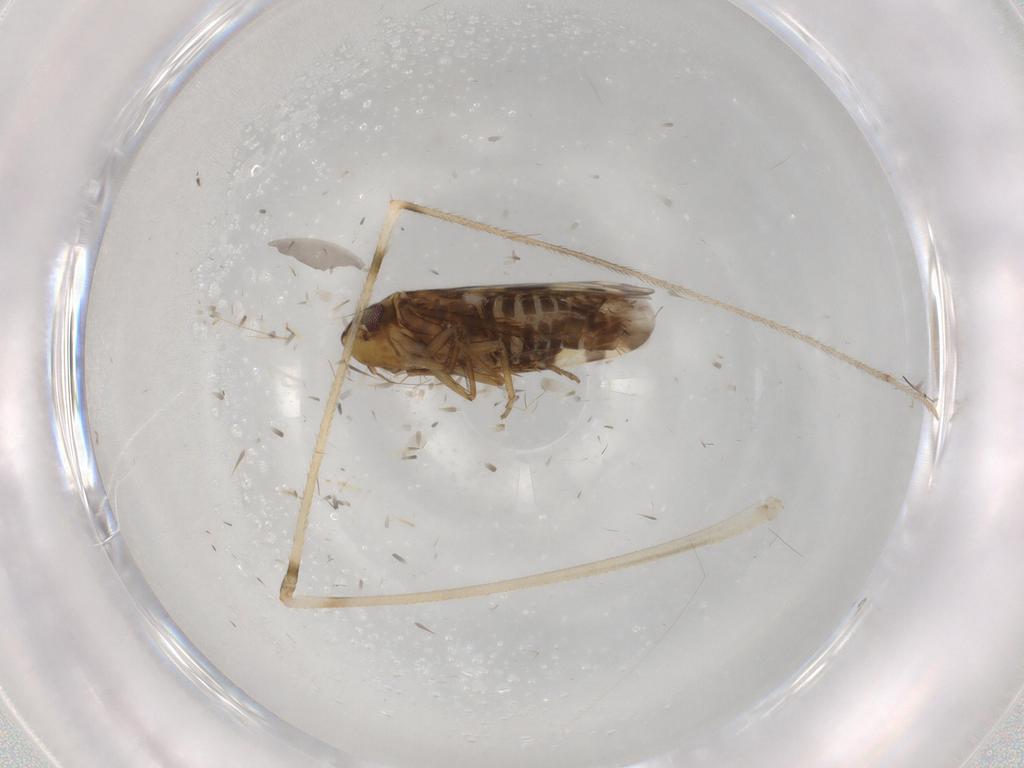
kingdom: Animalia
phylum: Arthropoda
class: Insecta
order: Hemiptera
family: Cicadellidae
